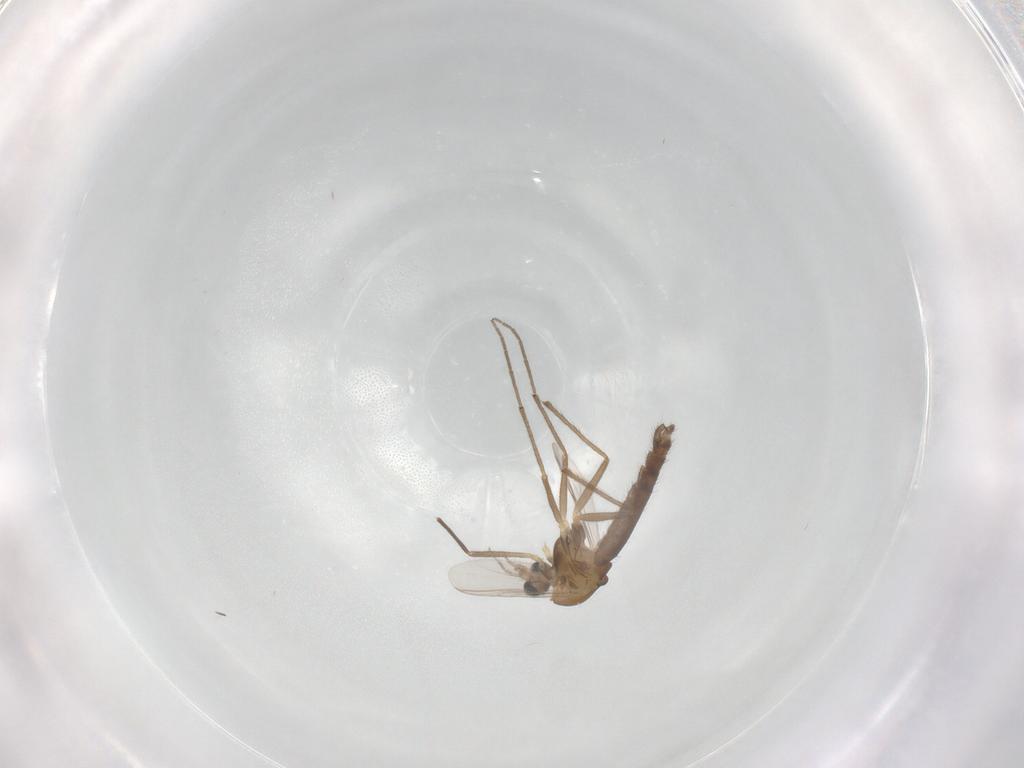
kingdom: Animalia
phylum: Arthropoda
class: Insecta
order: Diptera
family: Chironomidae
